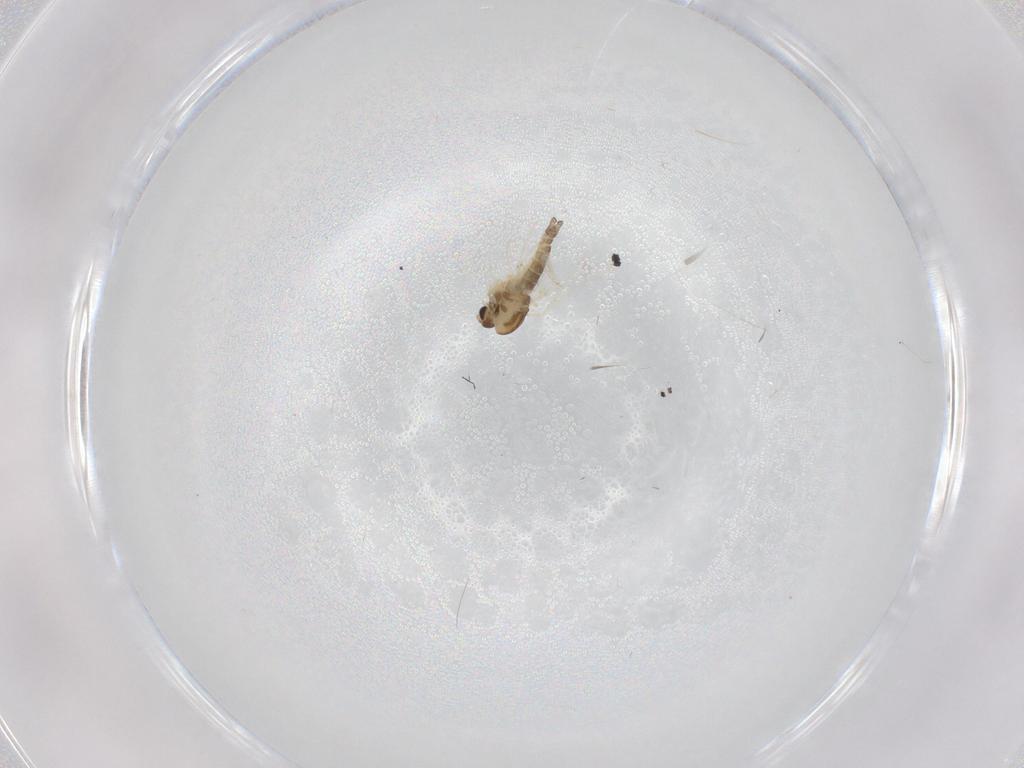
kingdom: Animalia
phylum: Arthropoda
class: Insecta
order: Diptera
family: Chironomidae
